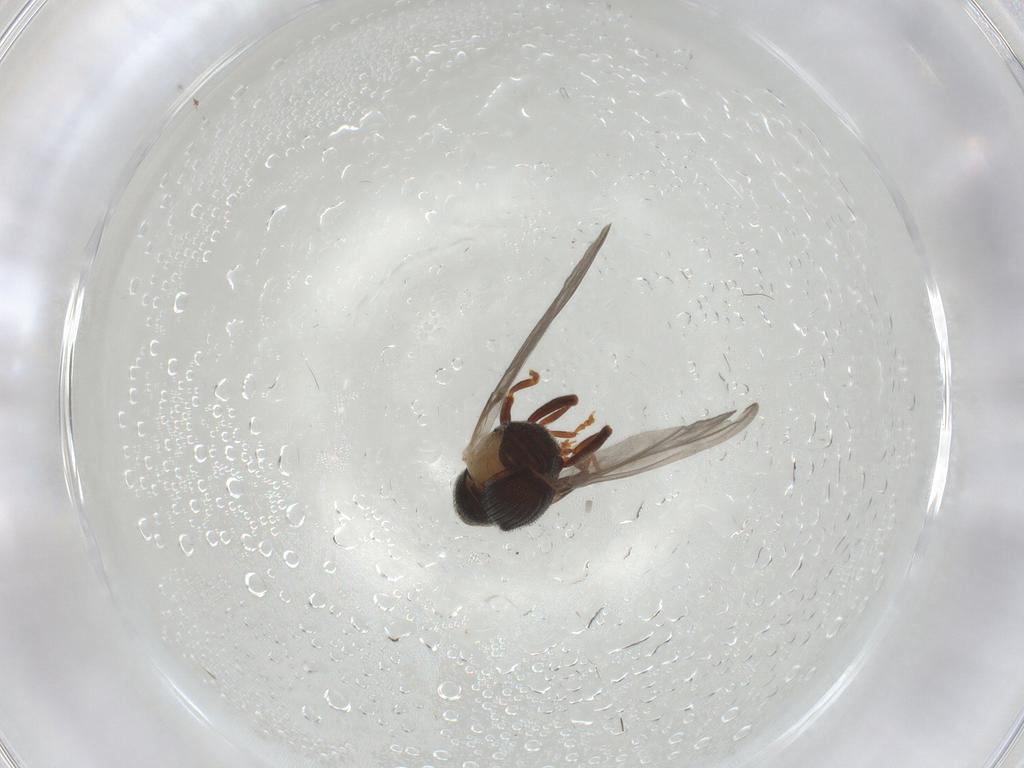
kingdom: Animalia
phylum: Arthropoda
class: Insecta
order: Coleoptera
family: Curculionidae
